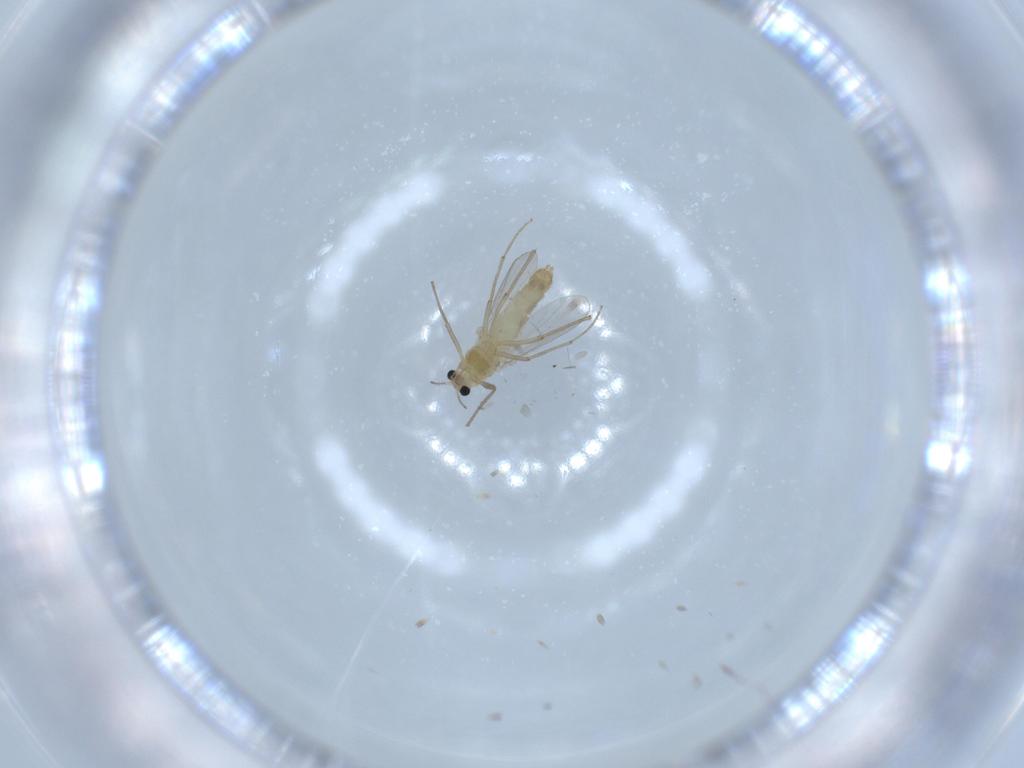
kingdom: Animalia
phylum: Arthropoda
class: Insecta
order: Diptera
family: Chironomidae
